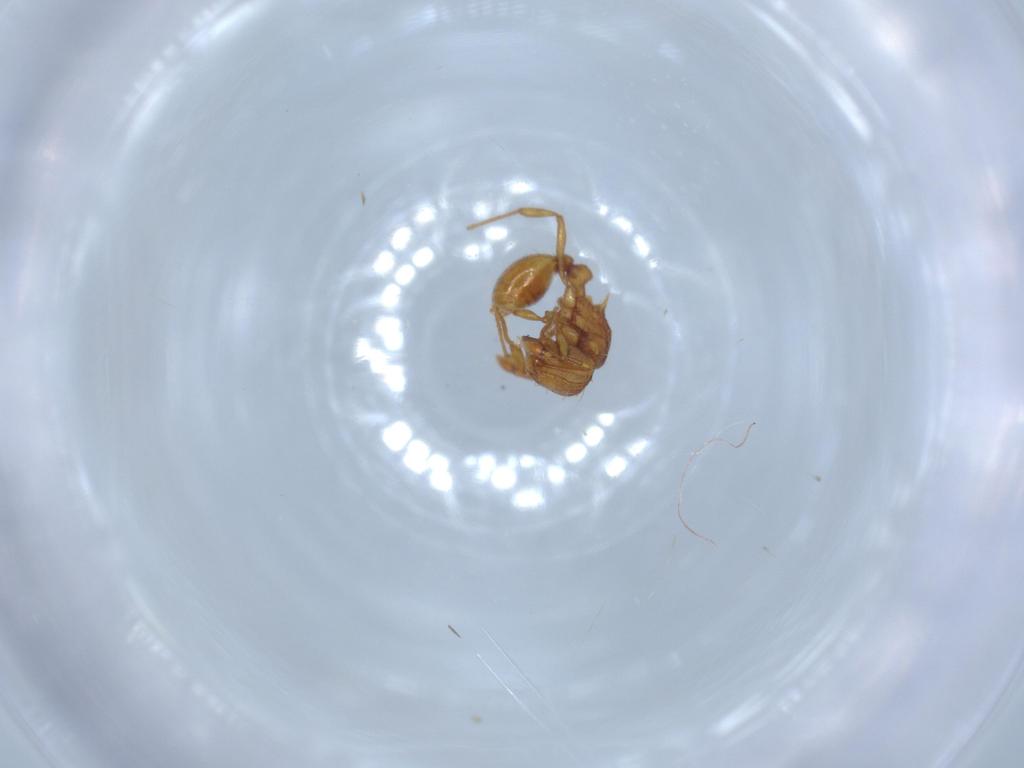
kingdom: Animalia
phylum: Arthropoda
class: Insecta
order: Hymenoptera
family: Formicidae
